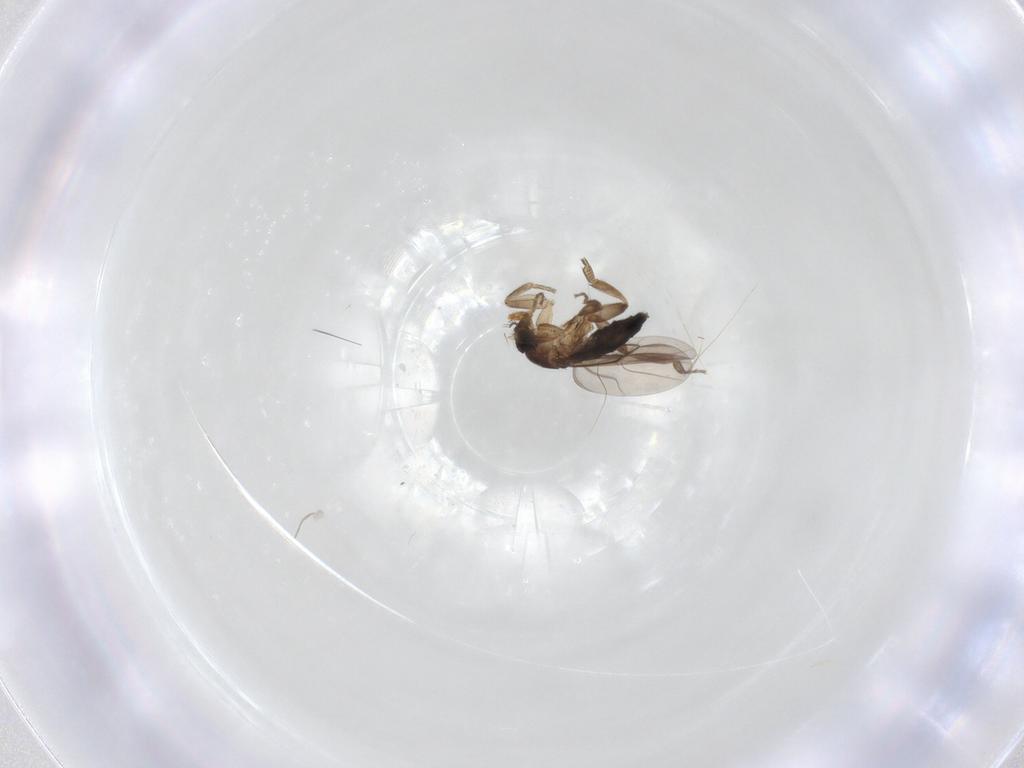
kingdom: Animalia
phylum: Arthropoda
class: Insecta
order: Diptera
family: Phoridae
